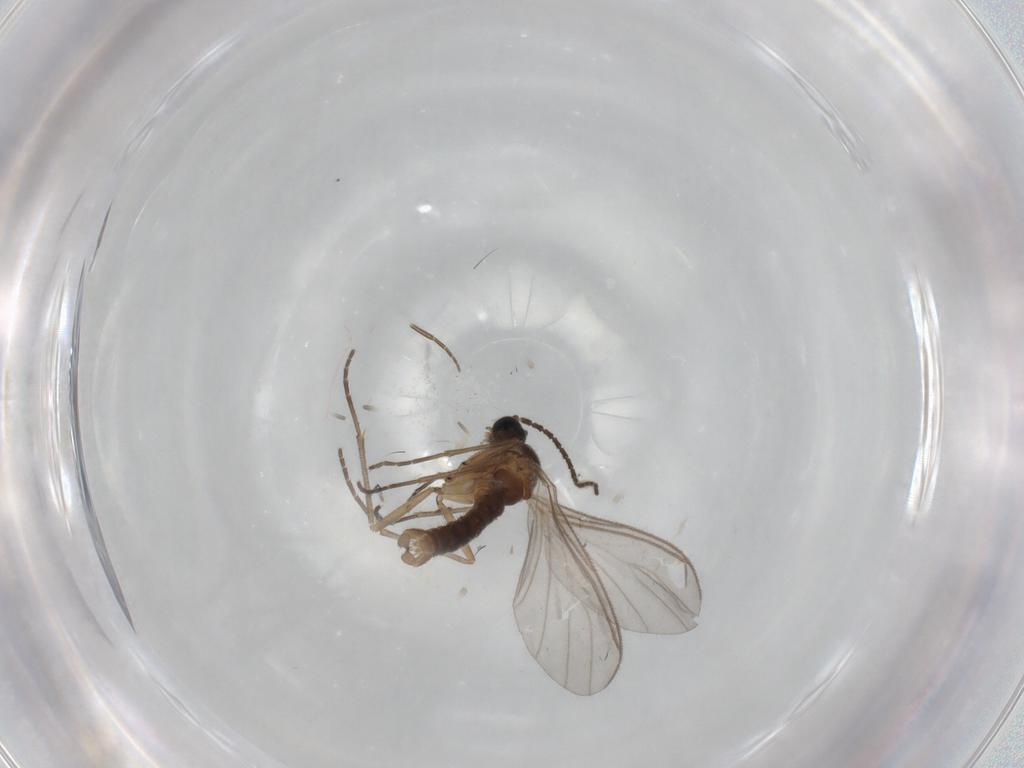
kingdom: Animalia
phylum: Arthropoda
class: Insecta
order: Diptera
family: Sciaridae
